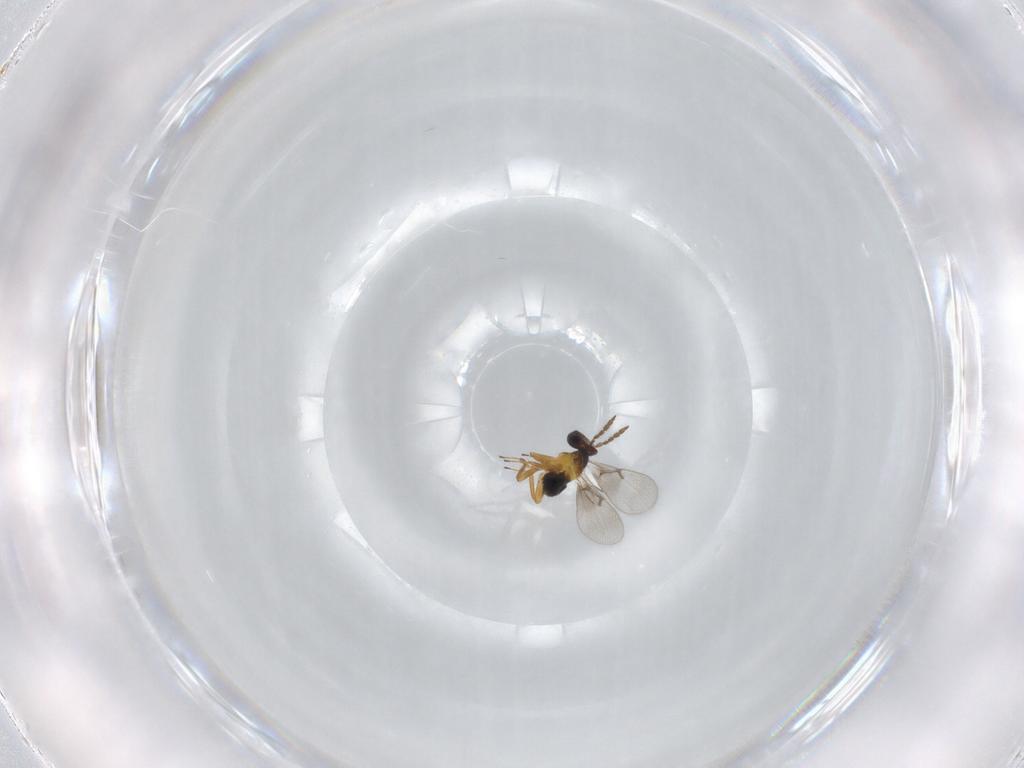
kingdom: Animalia
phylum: Arthropoda
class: Insecta
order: Hymenoptera
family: Trichogrammatidae
